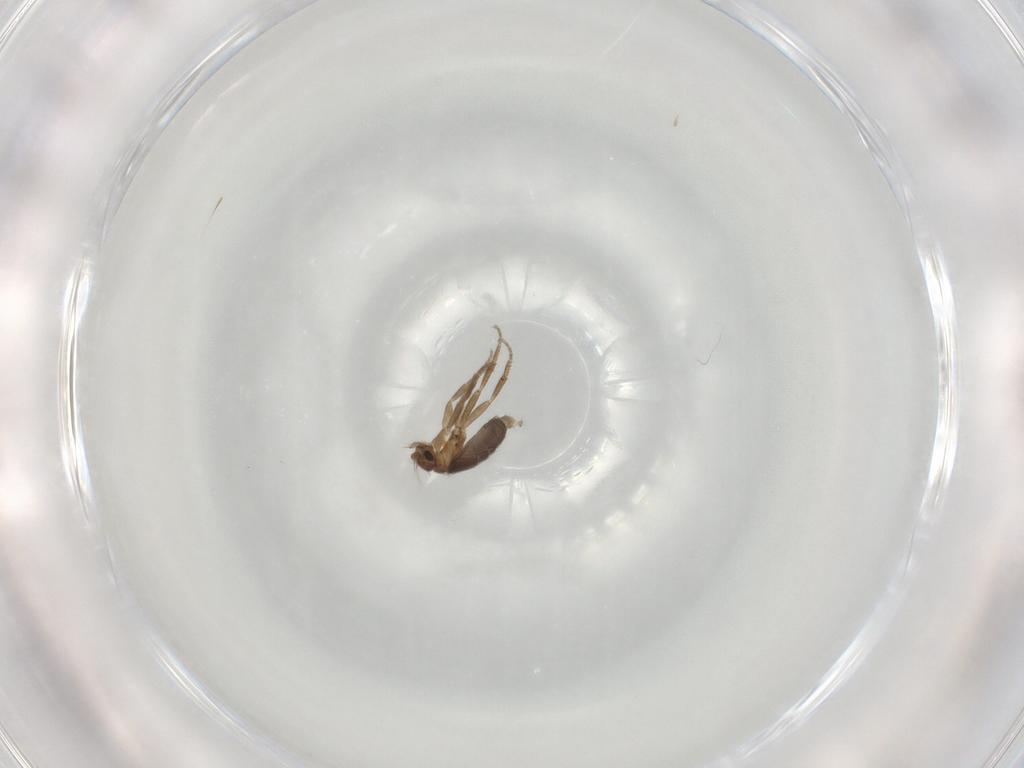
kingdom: Animalia
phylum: Arthropoda
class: Insecta
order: Diptera
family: Phoridae
